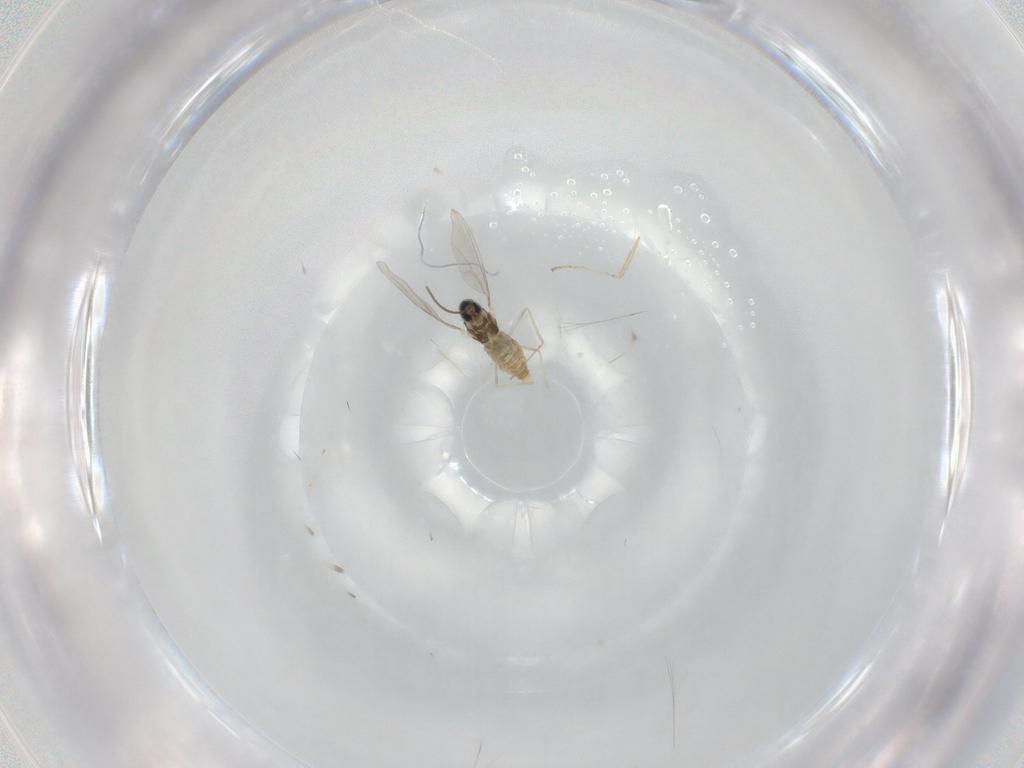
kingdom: Animalia
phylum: Arthropoda
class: Insecta
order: Diptera
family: Cecidomyiidae
